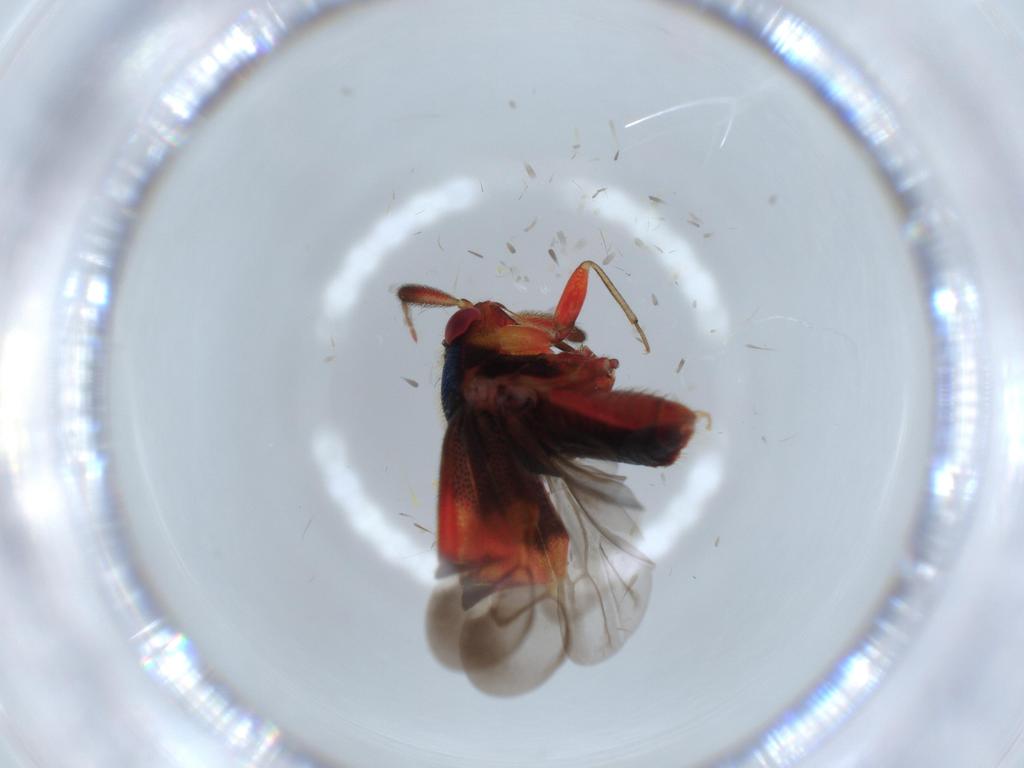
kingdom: Animalia
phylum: Arthropoda
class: Insecta
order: Hemiptera
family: Miridae
